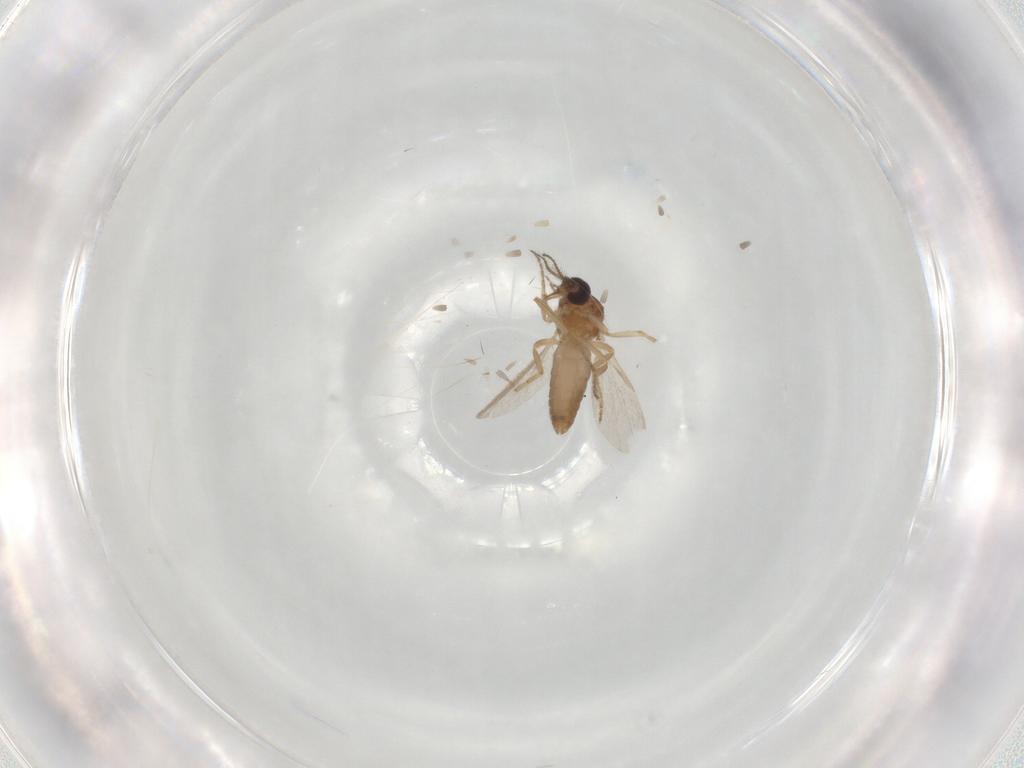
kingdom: Animalia
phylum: Arthropoda
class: Insecta
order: Diptera
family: Ceratopogonidae
